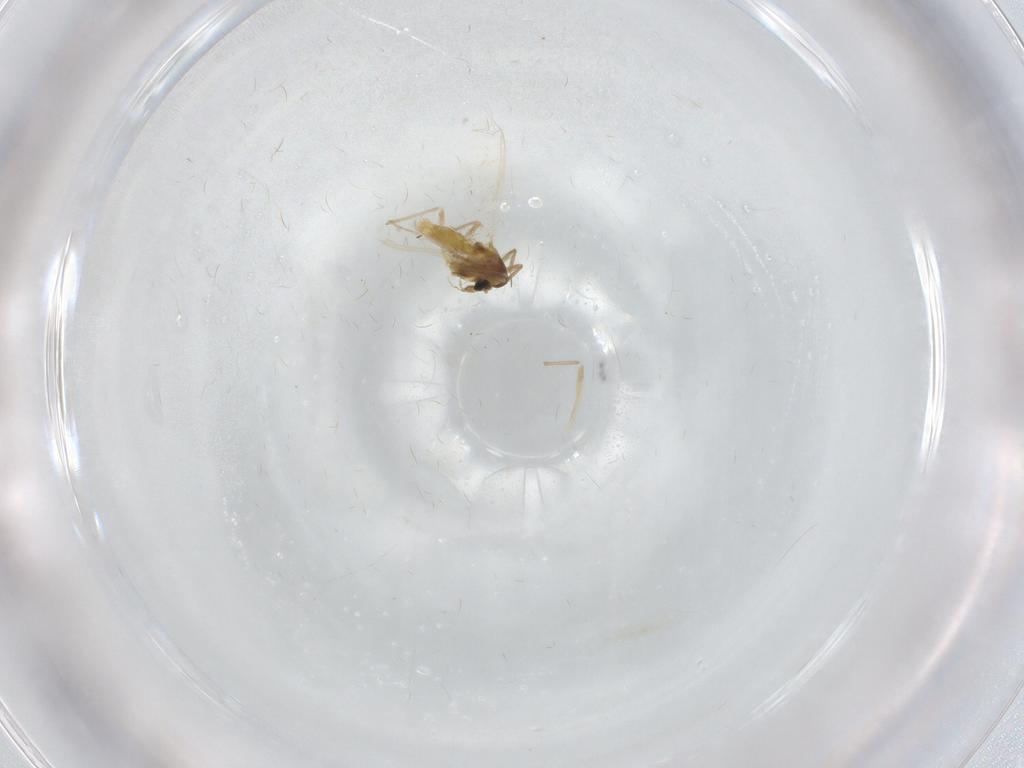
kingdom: Animalia
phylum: Arthropoda
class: Insecta
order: Diptera
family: Chironomidae
